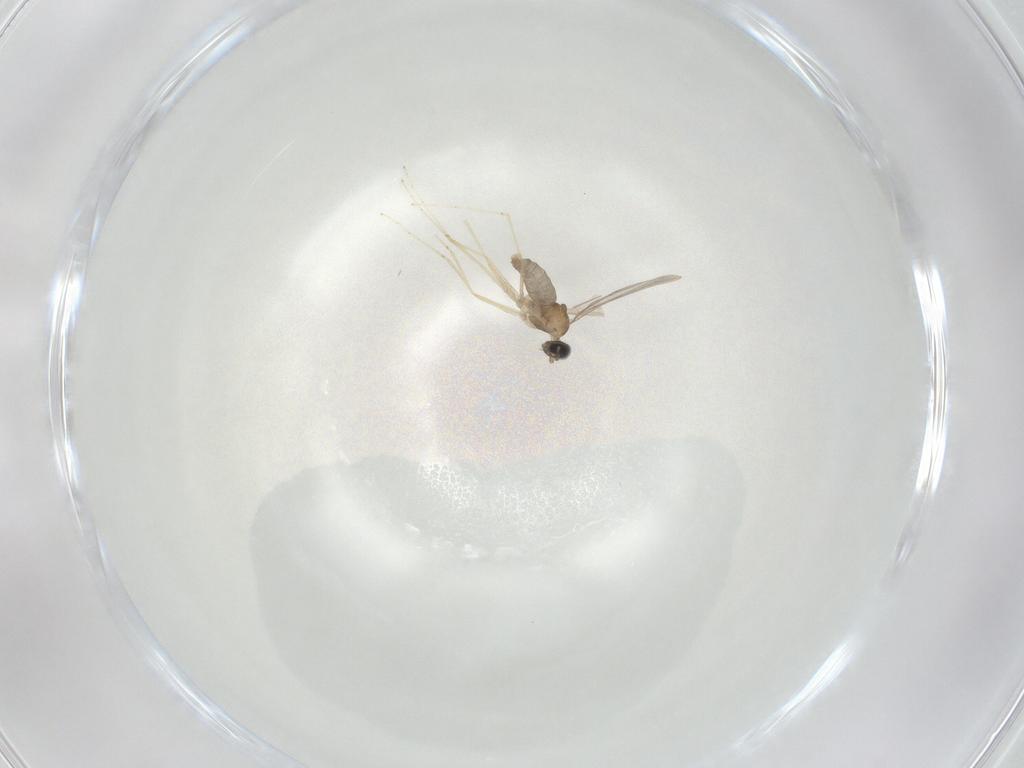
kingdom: Animalia
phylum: Arthropoda
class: Insecta
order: Diptera
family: Cecidomyiidae
